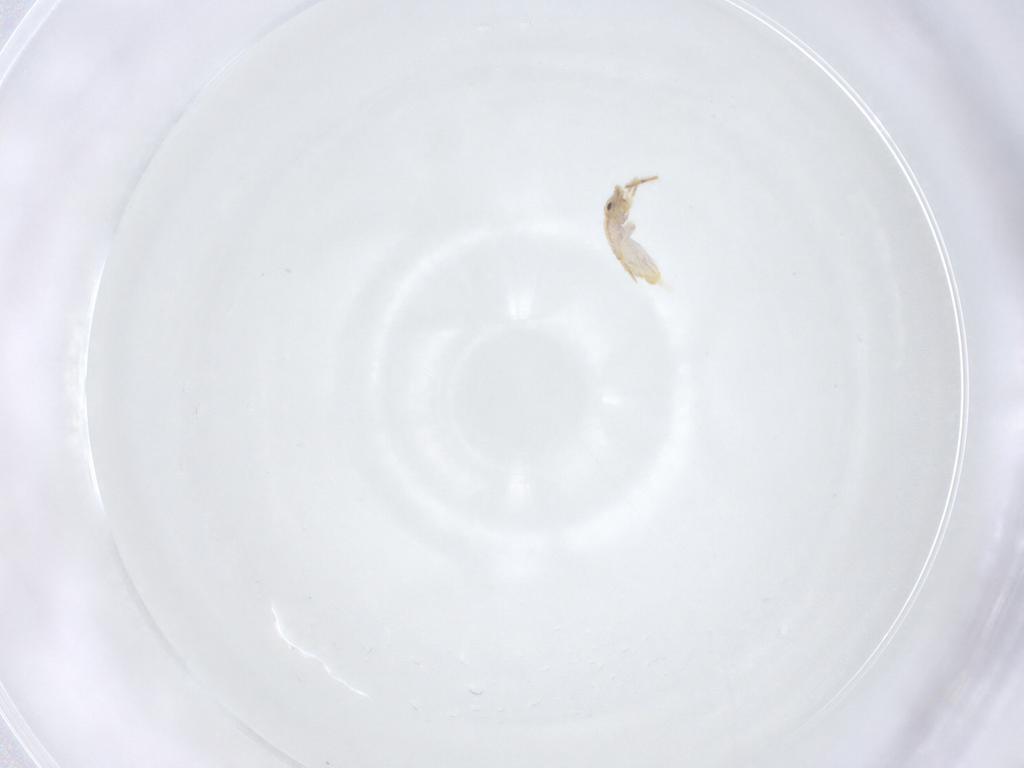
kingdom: Animalia
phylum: Arthropoda
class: Collembola
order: Entomobryomorpha
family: Entomobryidae
